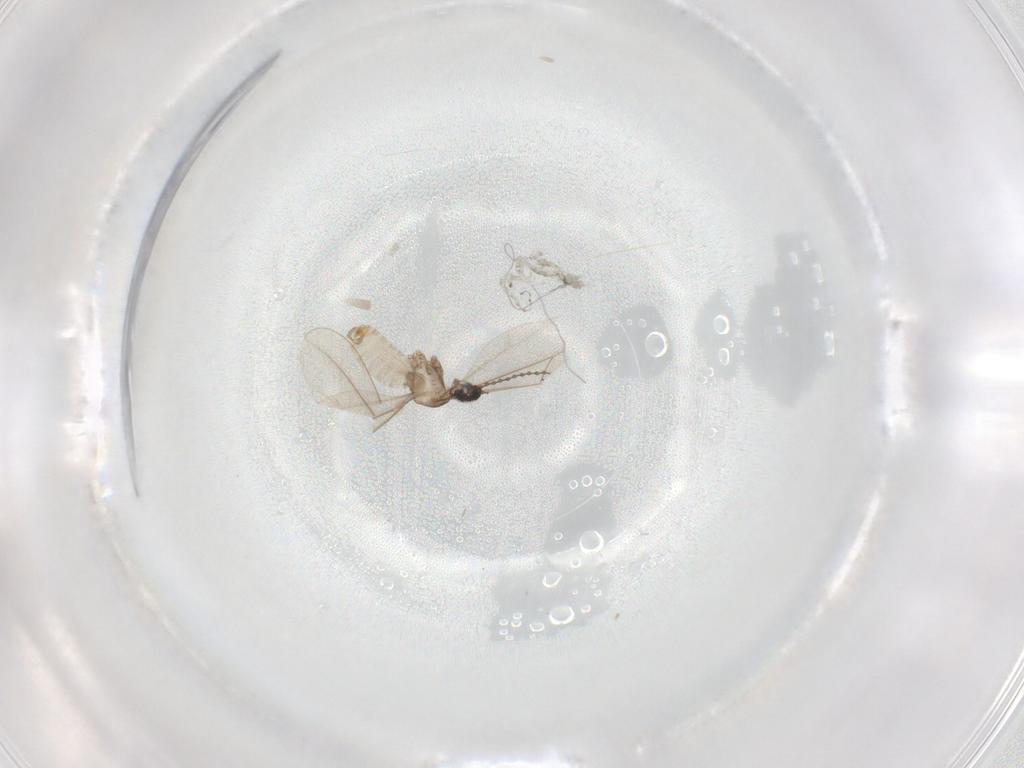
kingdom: Animalia
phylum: Arthropoda
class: Insecta
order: Diptera
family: Cecidomyiidae
